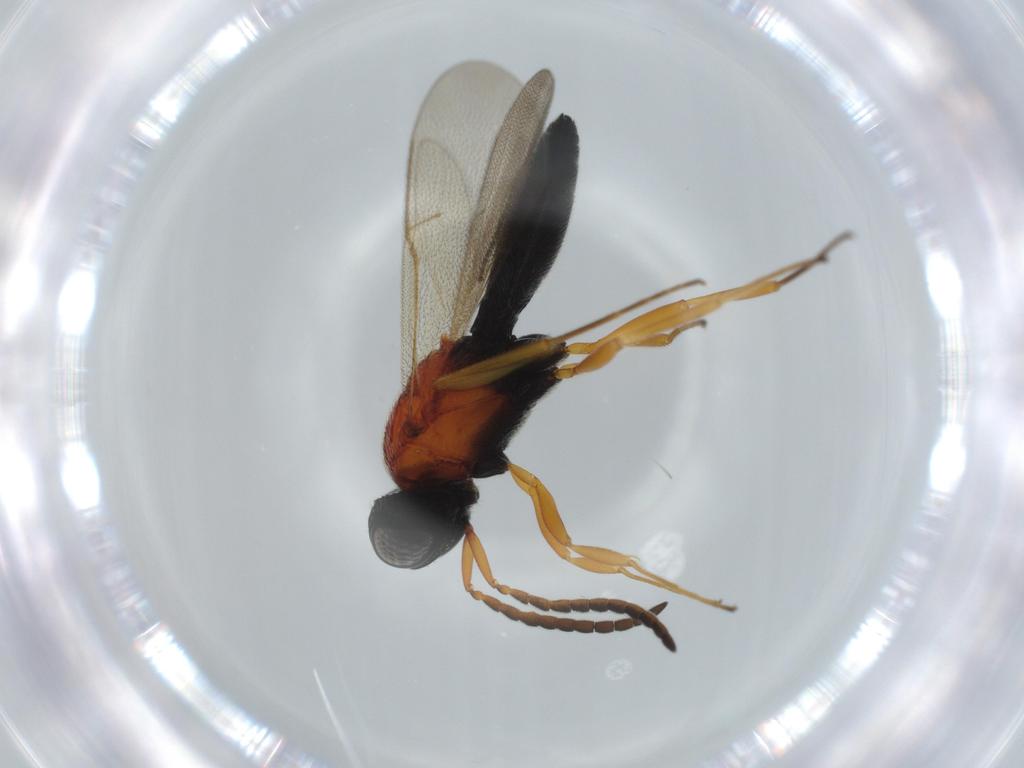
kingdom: Animalia
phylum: Arthropoda
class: Insecta
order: Hymenoptera
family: Scelionidae
